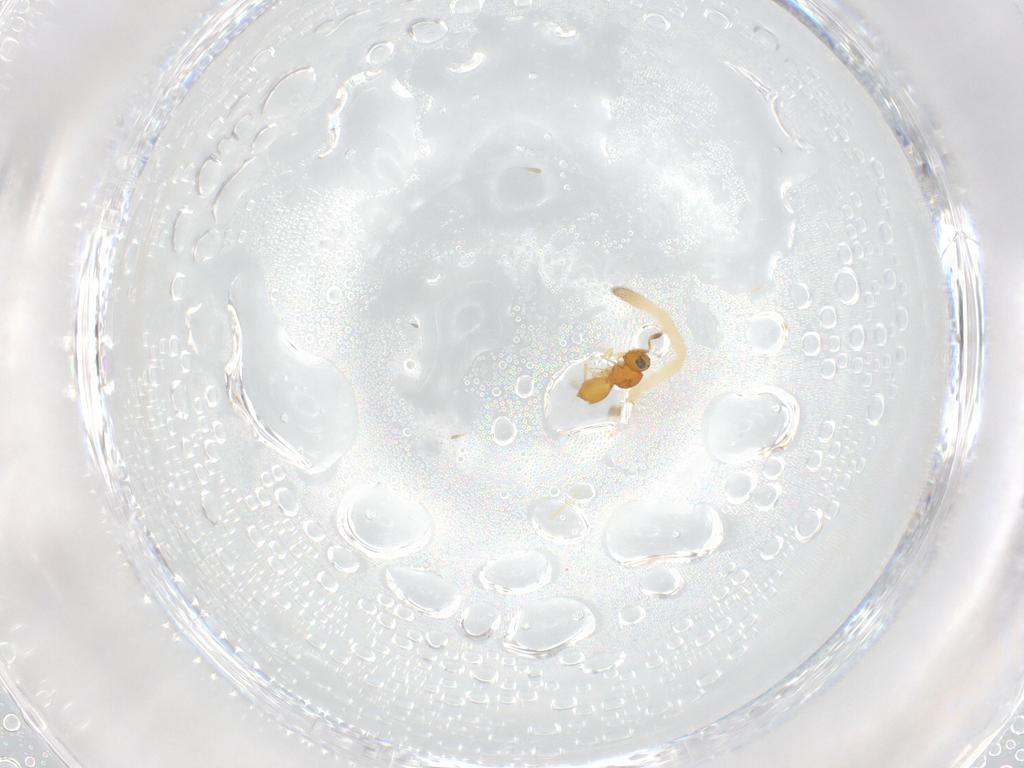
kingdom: Animalia
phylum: Arthropoda
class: Insecta
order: Hymenoptera
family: Scelionidae
